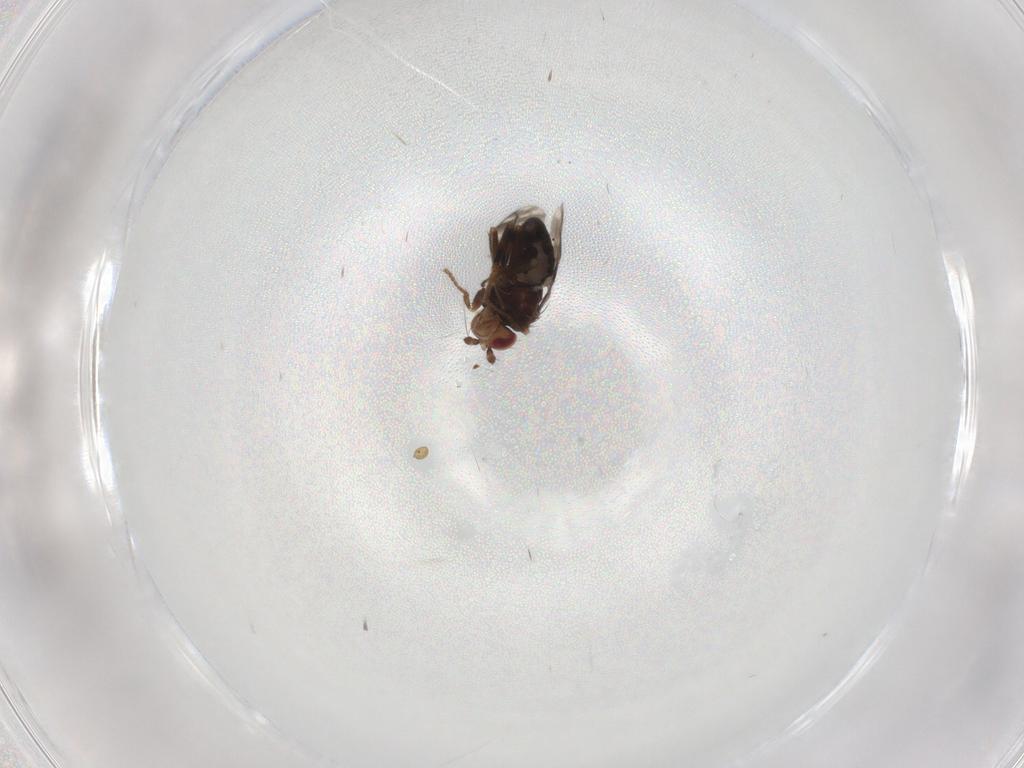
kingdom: Animalia
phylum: Arthropoda
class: Insecta
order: Diptera
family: Sphaeroceridae
